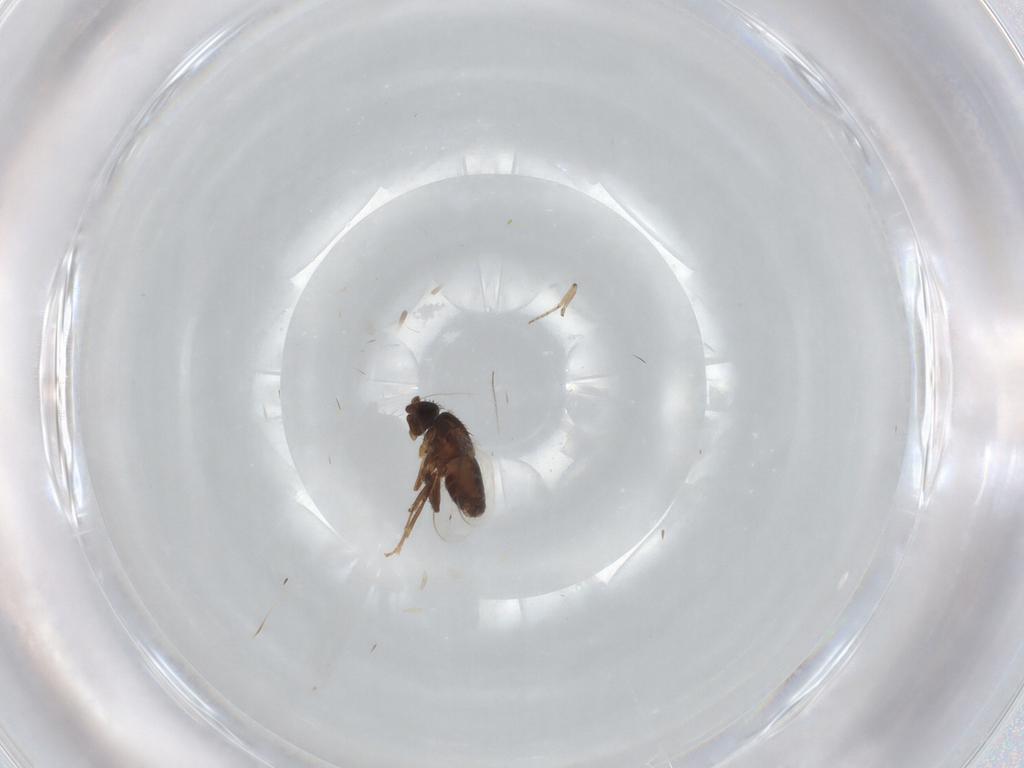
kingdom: Animalia
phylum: Arthropoda
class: Insecta
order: Diptera
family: Sphaeroceridae
